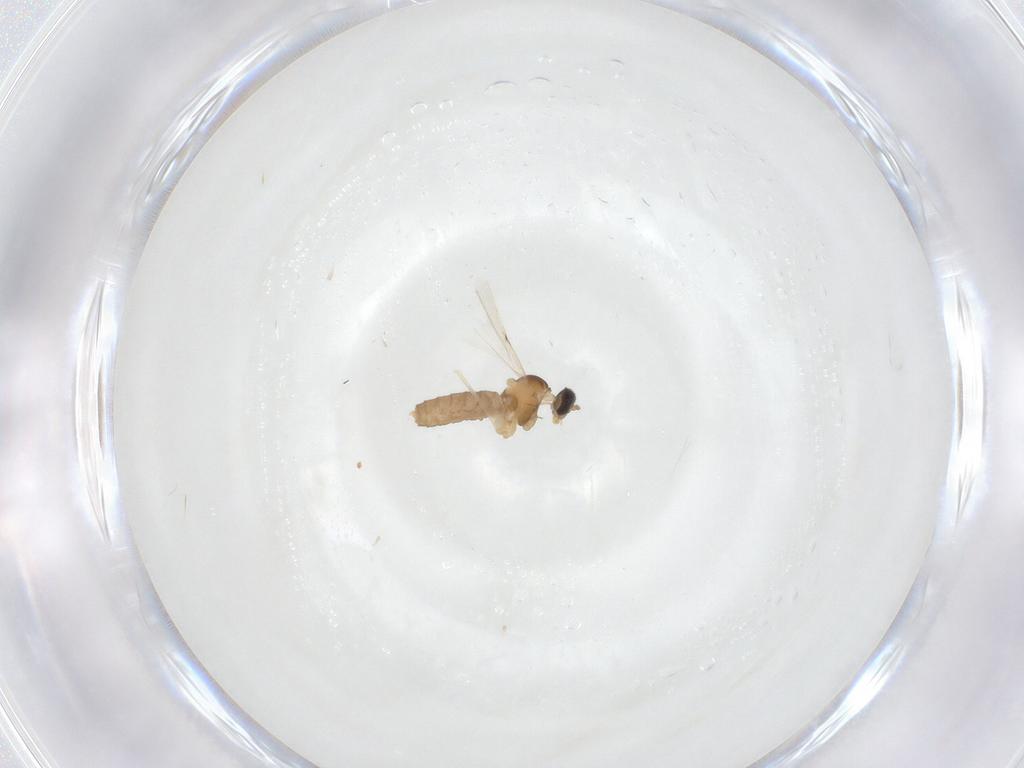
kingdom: Animalia
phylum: Arthropoda
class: Insecta
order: Diptera
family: Cecidomyiidae
